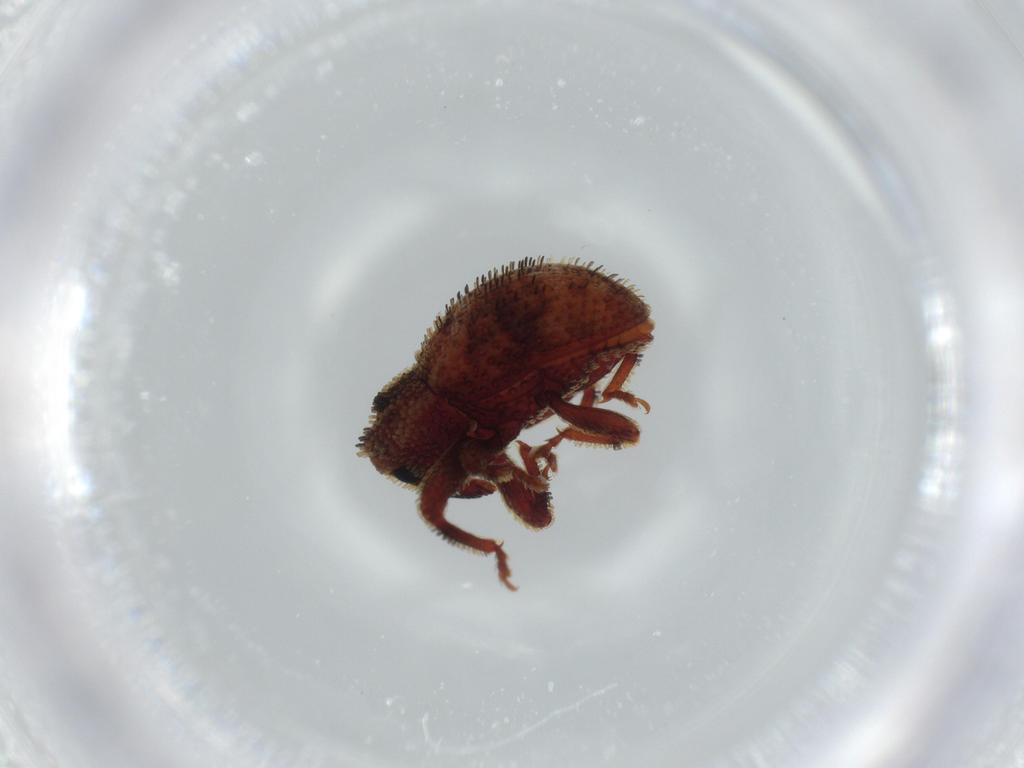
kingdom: Animalia
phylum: Arthropoda
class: Insecta
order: Coleoptera
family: Curculionidae
